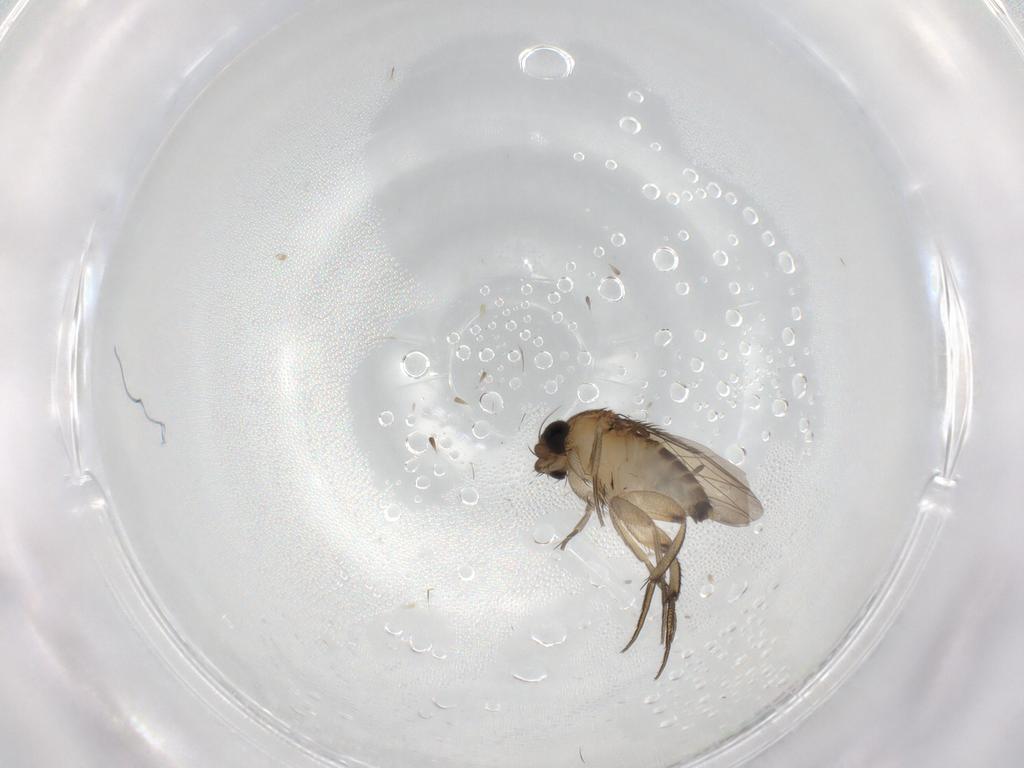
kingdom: Animalia
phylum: Arthropoda
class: Insecta
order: Diptera
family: Phoridae
